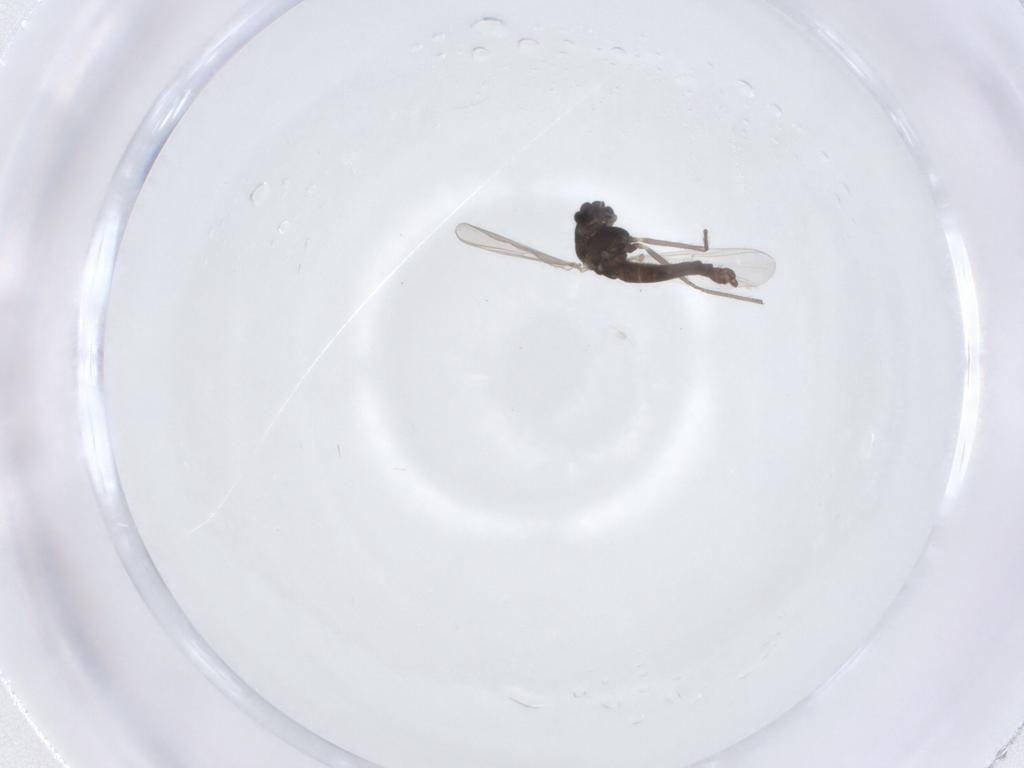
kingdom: Animalia
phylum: Arthropoda
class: Insecta
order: Diptera
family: Chironomidae
